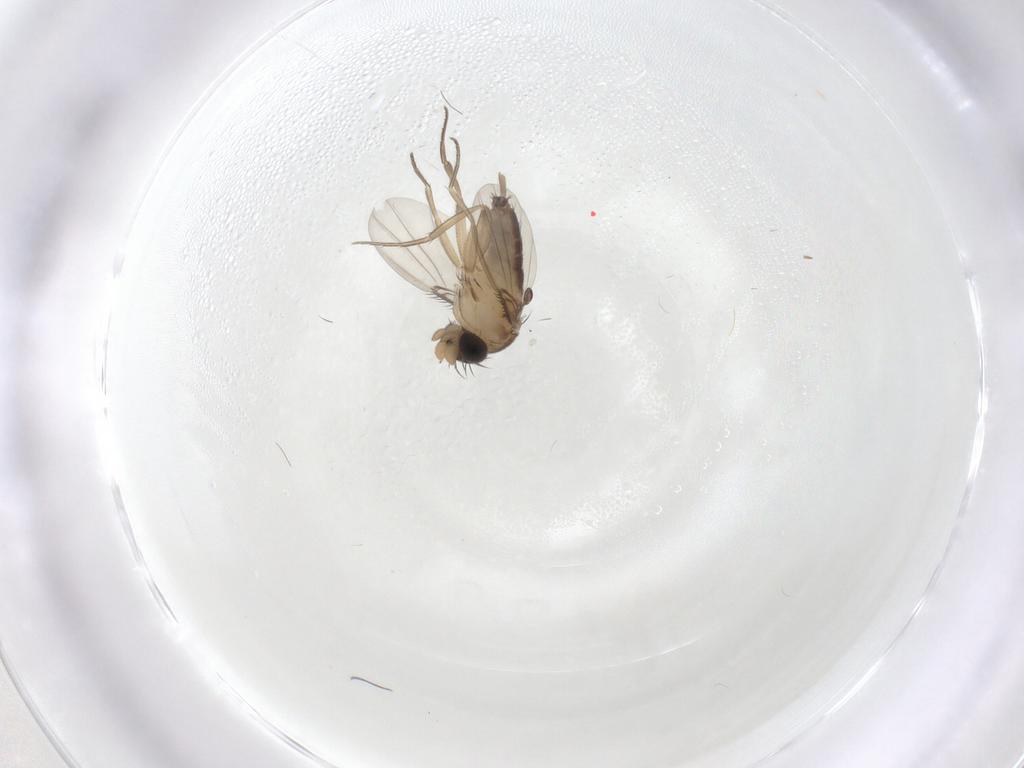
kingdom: Animalia
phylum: Arthropoda
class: Insecta
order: Diptera
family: Phoridae
